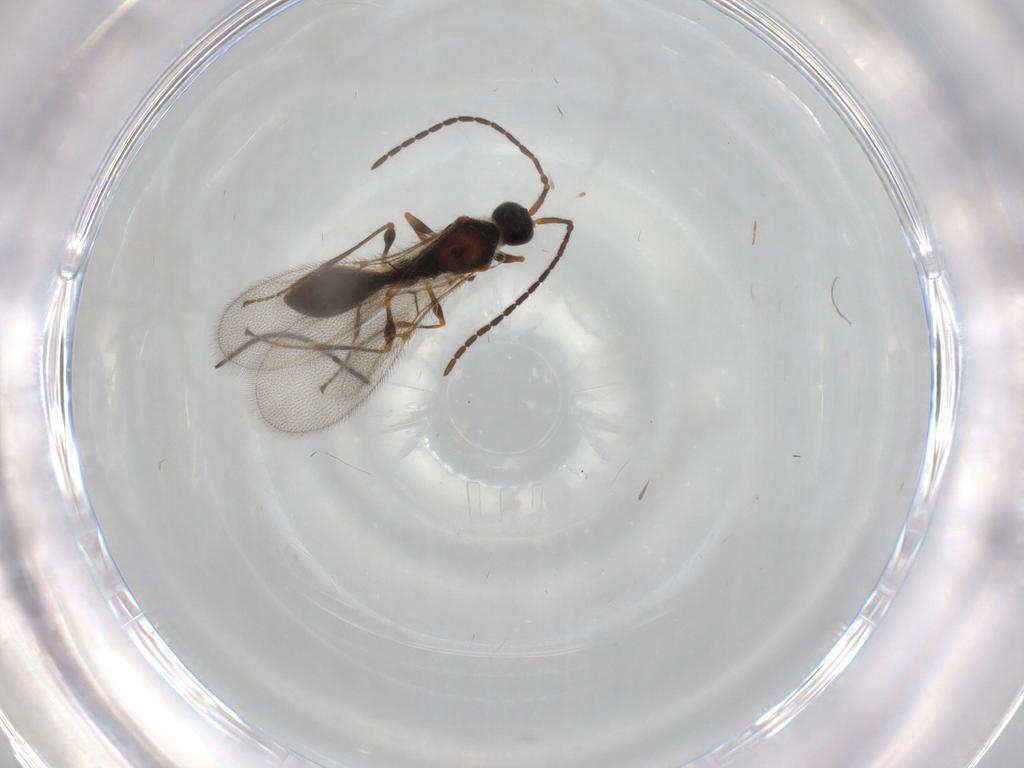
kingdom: Animalia
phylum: Arthropoda
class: Insecta
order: Hymenoptera
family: Diapriidae
